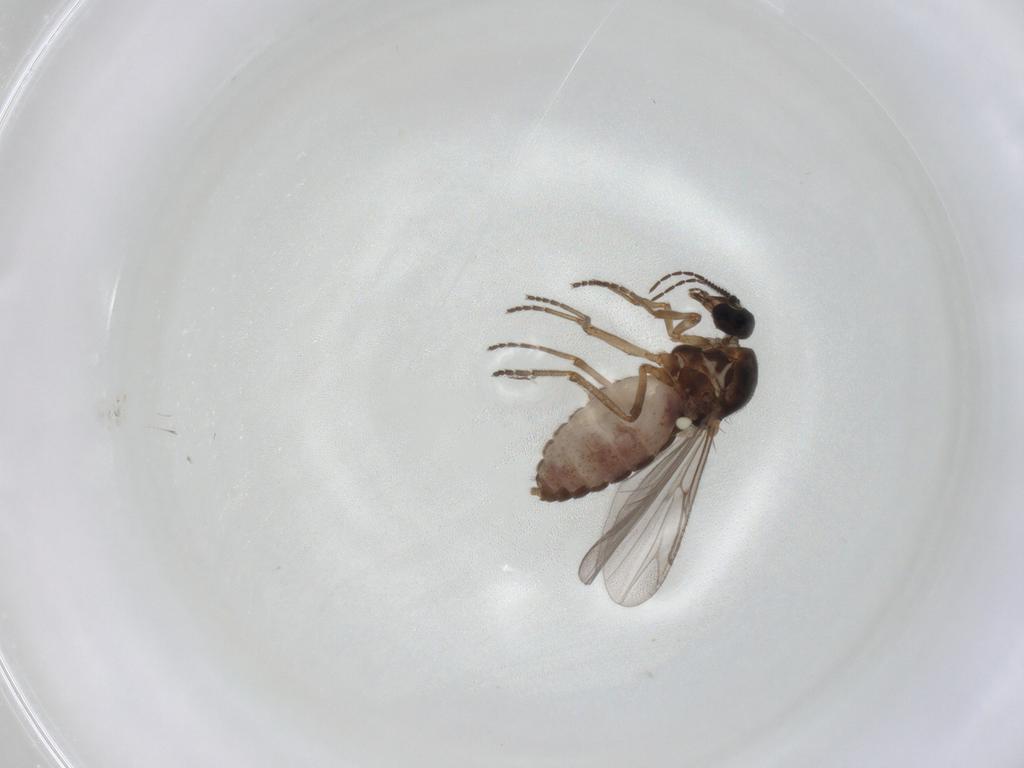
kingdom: Animalia
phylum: Arthropoda
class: Insecta
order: Diptera
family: Ceratopogonidae
